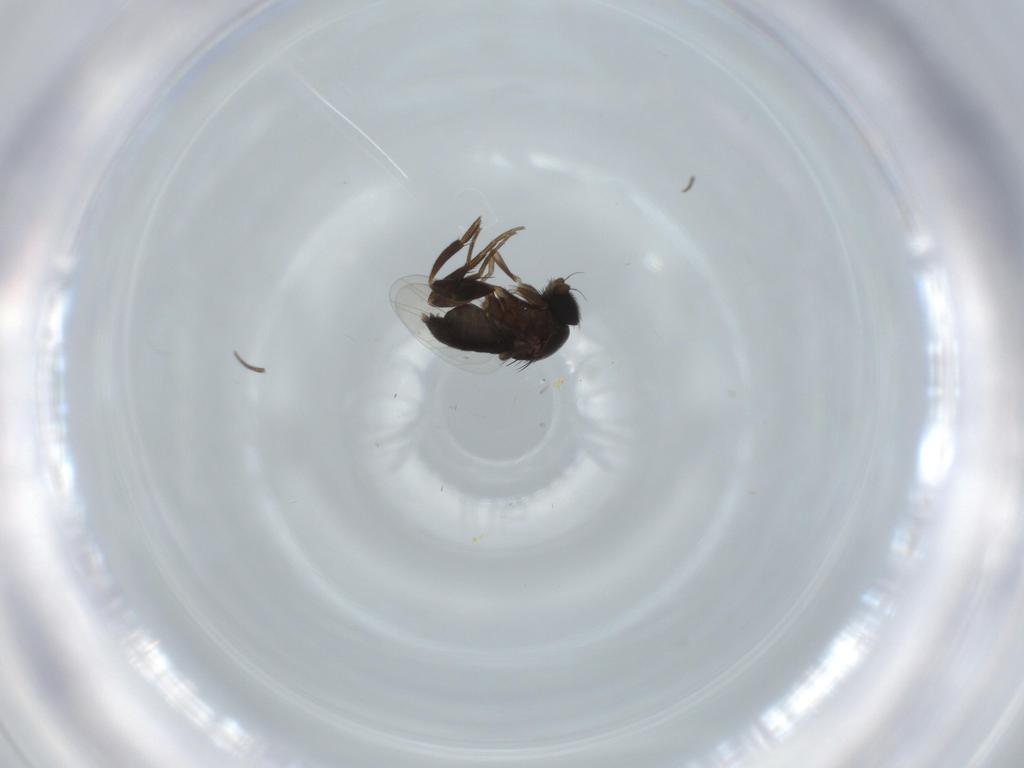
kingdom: Animalia
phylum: Arthropoda
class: Insecta
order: Diptera
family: Phoridae
